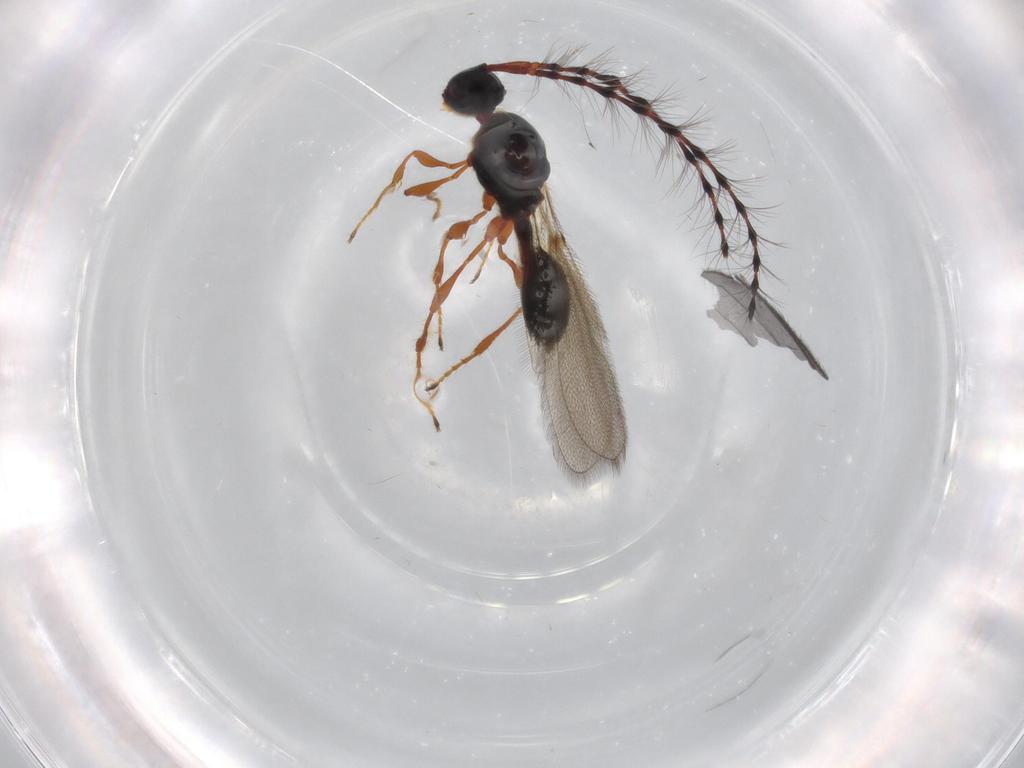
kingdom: Animalia
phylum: Arthropoda
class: Insecta
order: Hymenoptera
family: Diapriidae
